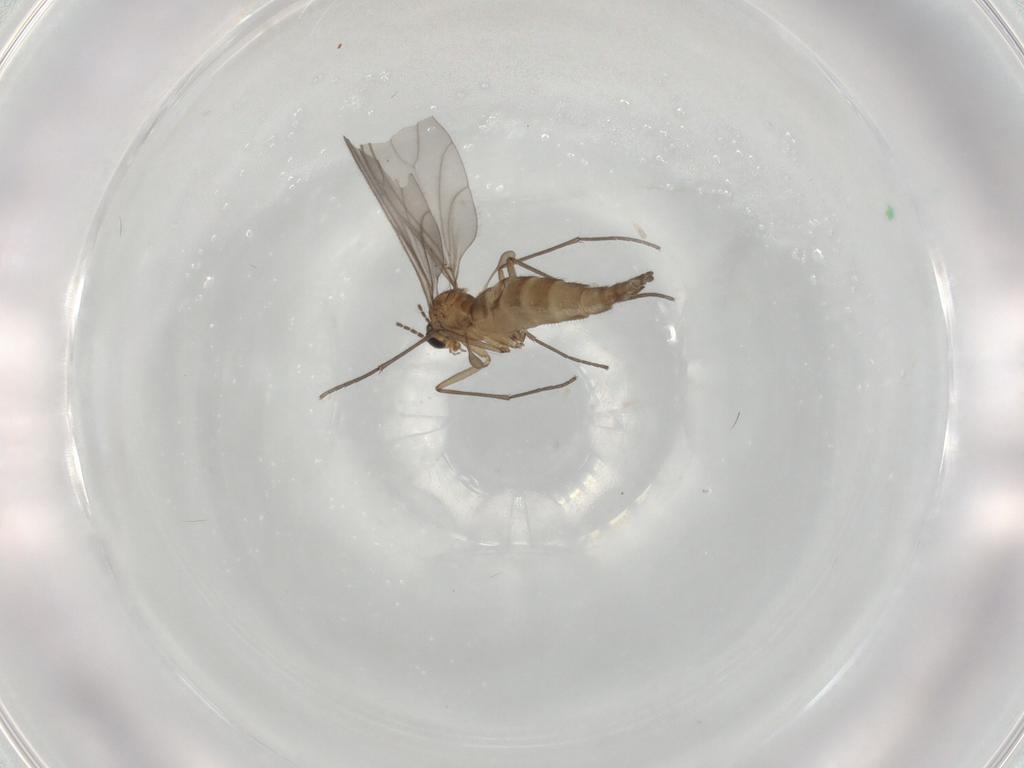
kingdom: Animalia
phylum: Arthropoda
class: Insecta
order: Diptera
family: Sciaridae
